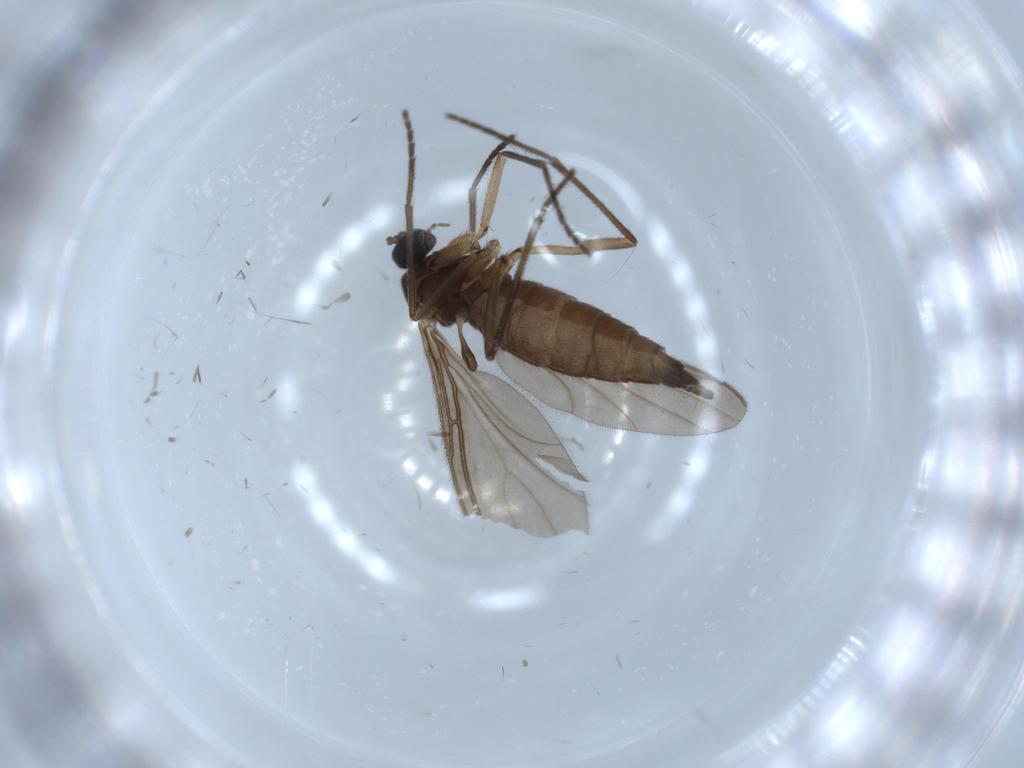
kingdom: Animalia
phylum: Arthropoda
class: Insecta
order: Diptera
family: Sciaridae
